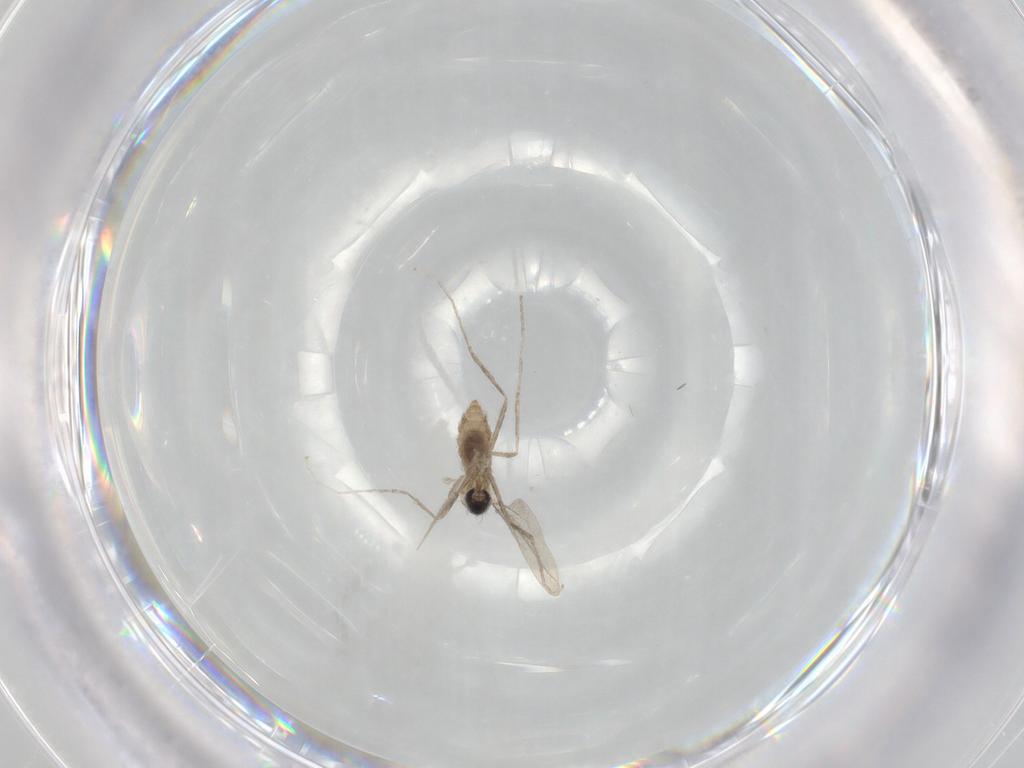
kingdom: Animalia
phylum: Arthropoda
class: Insecta
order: Diptera
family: Cecidomyiidae
